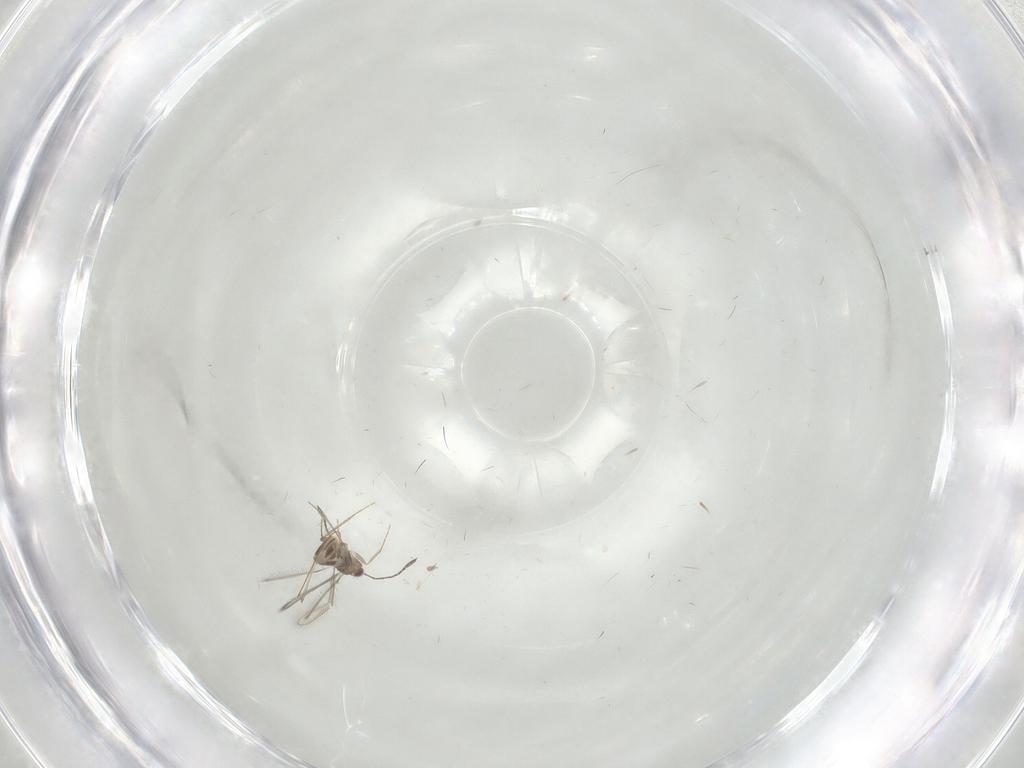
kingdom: Animalia
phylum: Arthropoda
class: Insecta
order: Hymenoptera
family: Mymaridae
